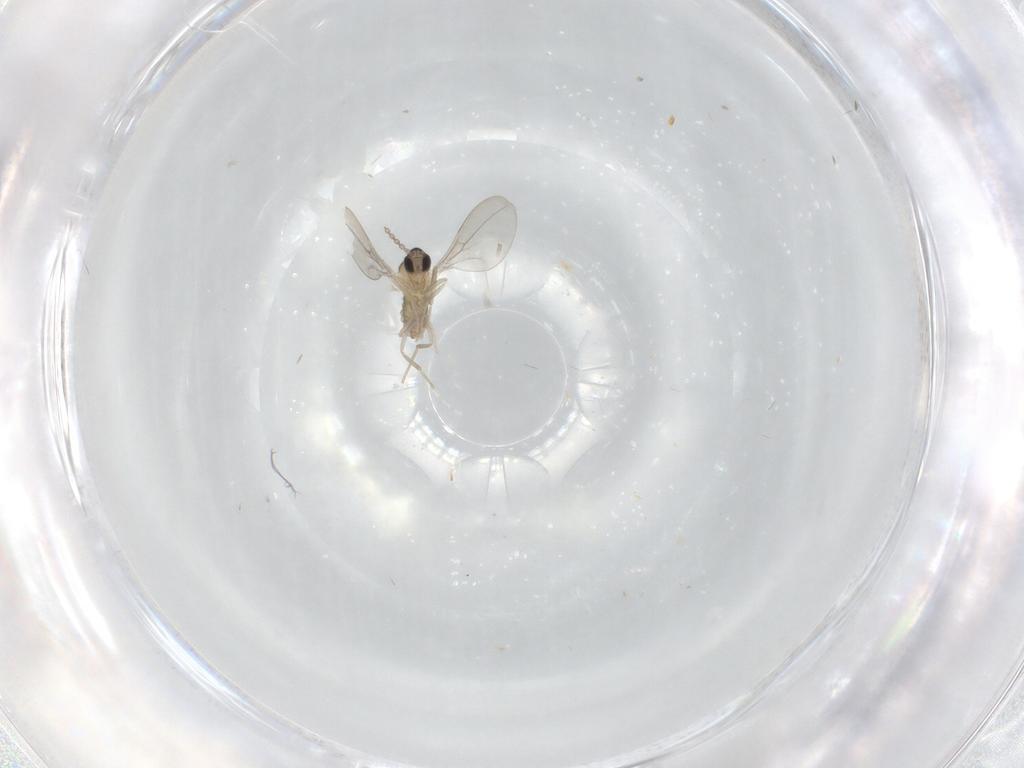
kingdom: Animalia
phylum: Arthropoda
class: Insecta
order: Diptera
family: Cecidomyiidae
